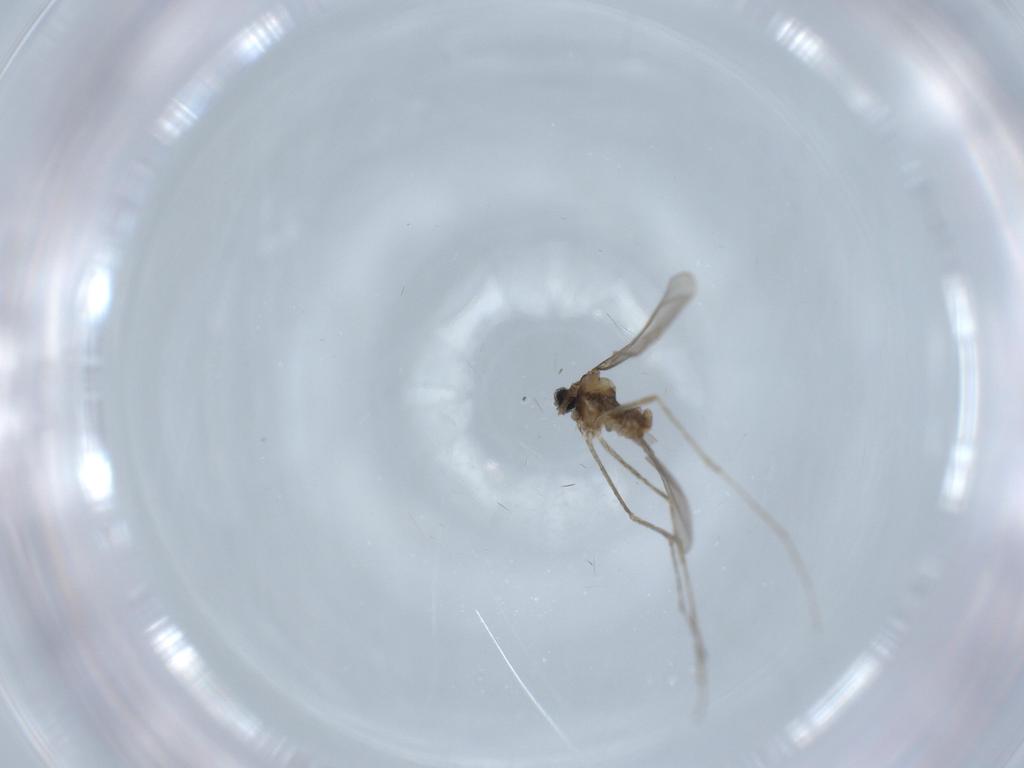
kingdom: Animalia
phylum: Arthropoda
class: Insecta
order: Diptera
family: Cecidomyiidae
